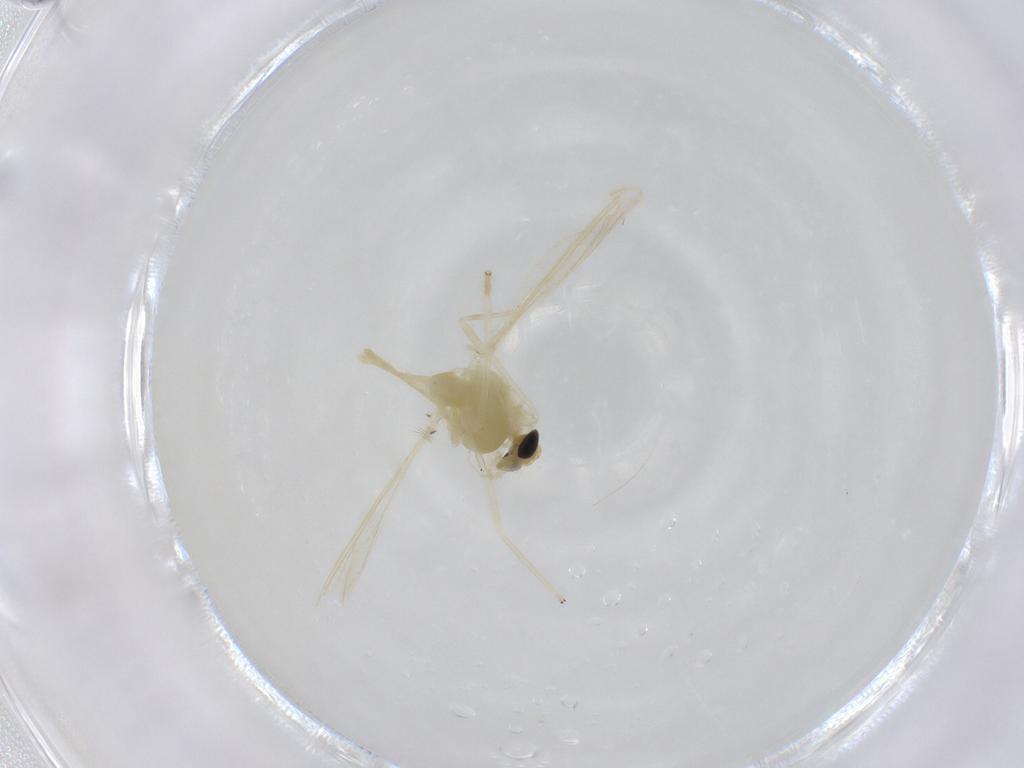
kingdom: Animalia
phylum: Arthropoda
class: Insecta
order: Diptera
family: Chironomidae
